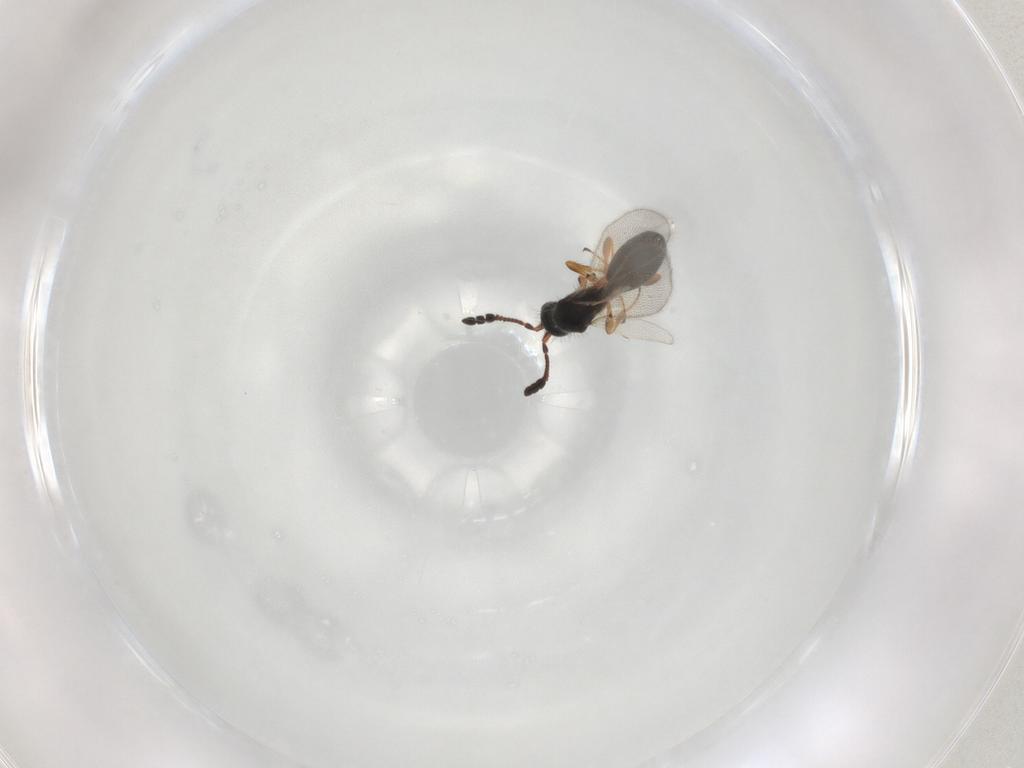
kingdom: Animalia
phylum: Arthropoda
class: Insecta
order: Hymenoptera
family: Diapriidae
